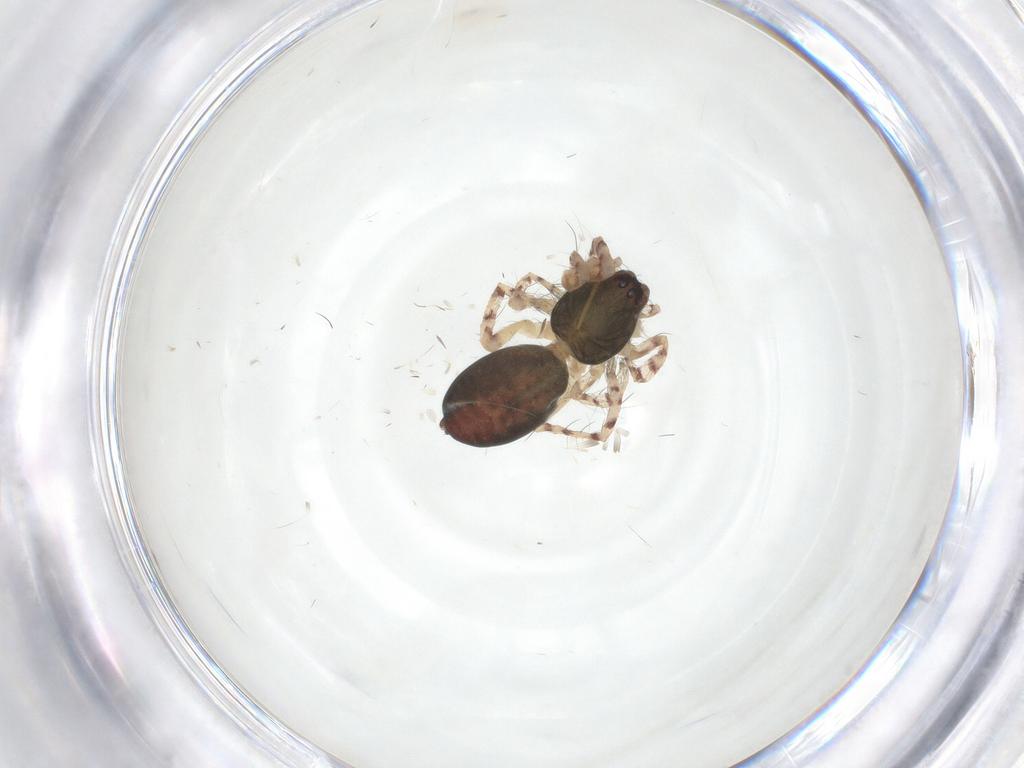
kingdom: Animalia
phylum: Arthropoda
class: Arachnida
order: Araneae
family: Anyphaenidae
